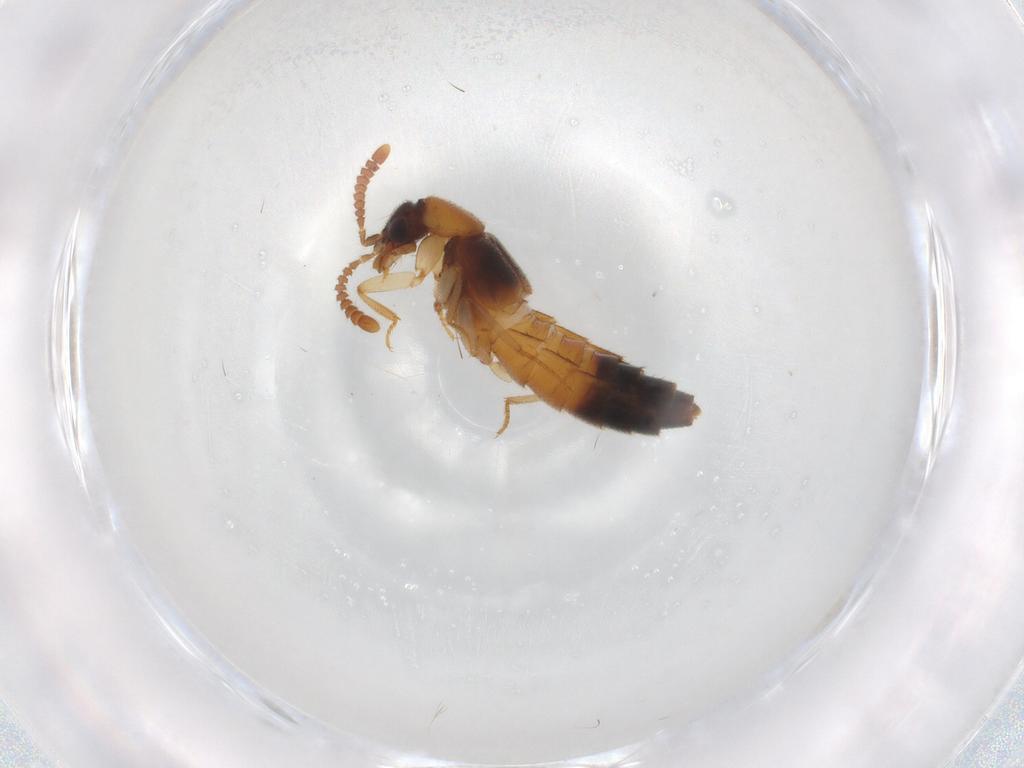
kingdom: Animalia
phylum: Arthropoda
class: Insecta
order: Coleoptera
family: Staphylinidae
